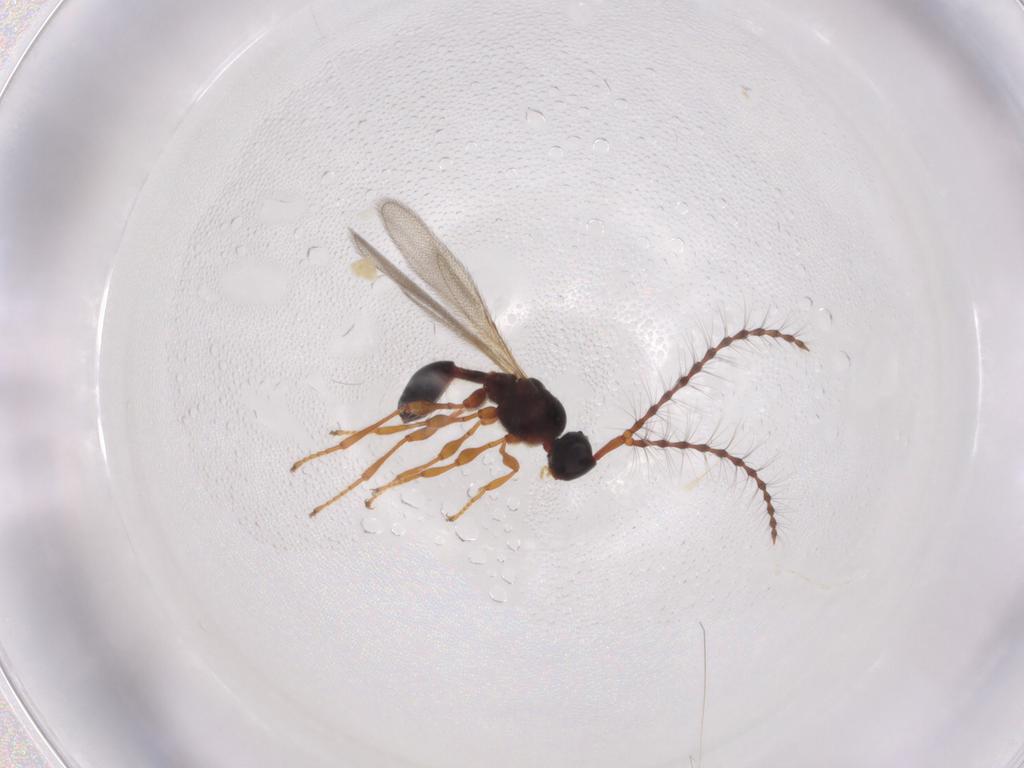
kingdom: Animalia
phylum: Arthropoda
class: Insecta
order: Hymenoptera
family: Diapriidae
